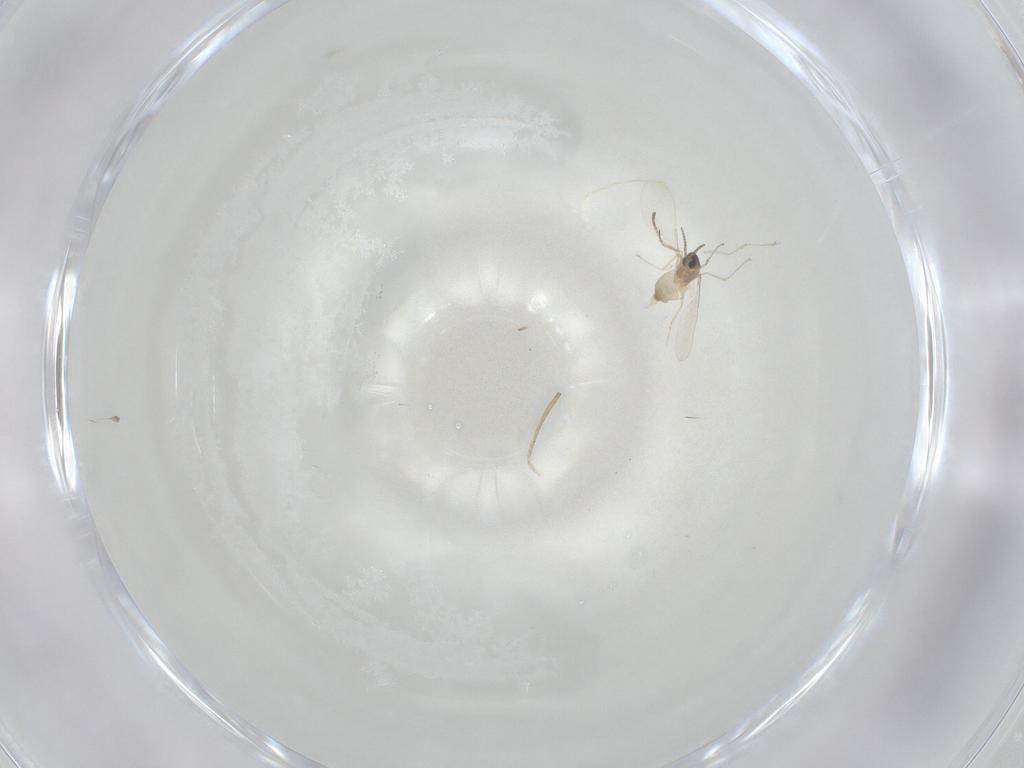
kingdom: Animalia
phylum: Arthropoda
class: Insecta
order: Diptera
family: Cecidomyiidae
